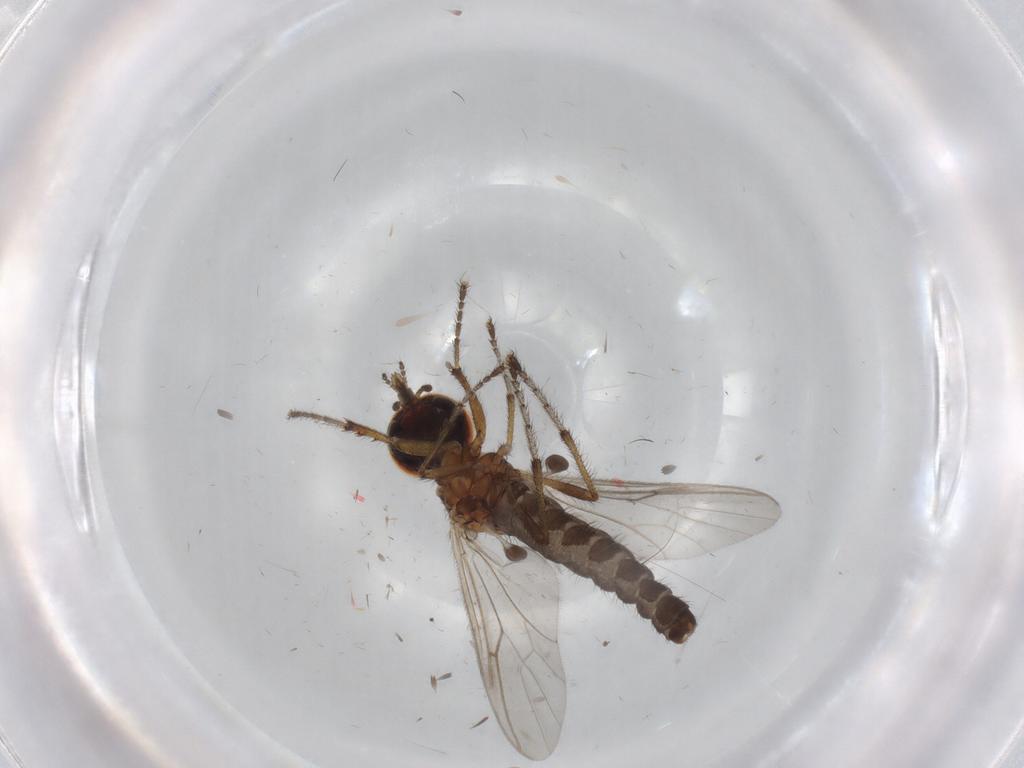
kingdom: Animalia
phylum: Arthropoda
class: Insecta
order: Diptera
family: Bibionidae
